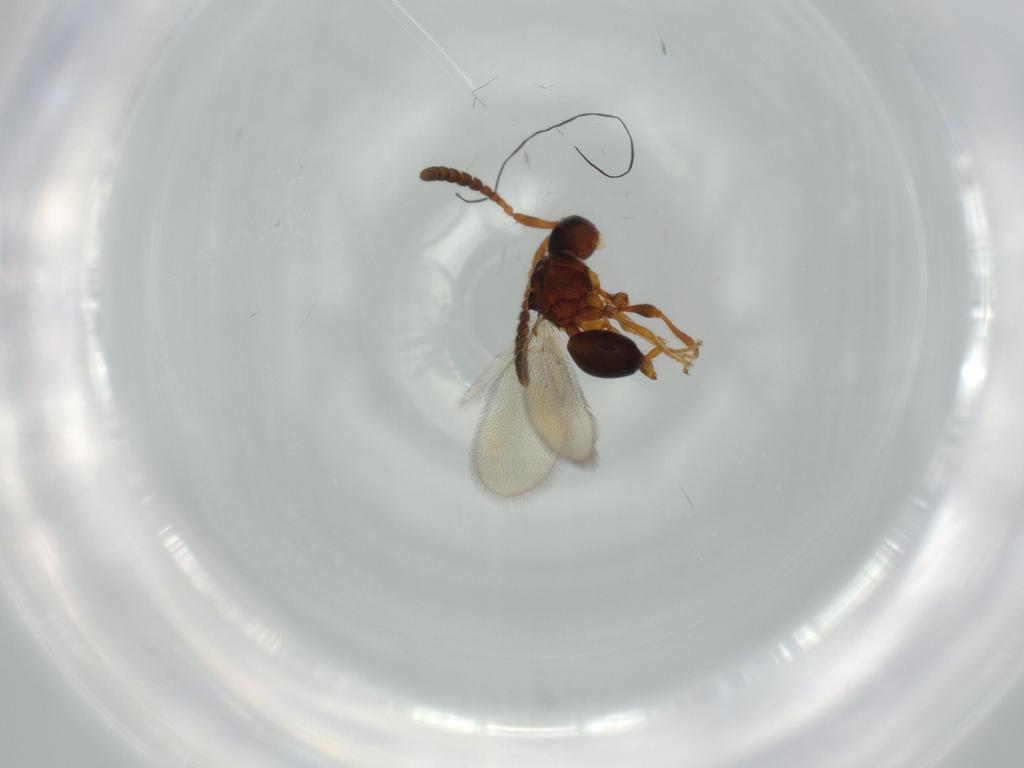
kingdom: Animalia
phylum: Arthropoda
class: Insecta
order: Hymenoptera
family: Diapriidae
